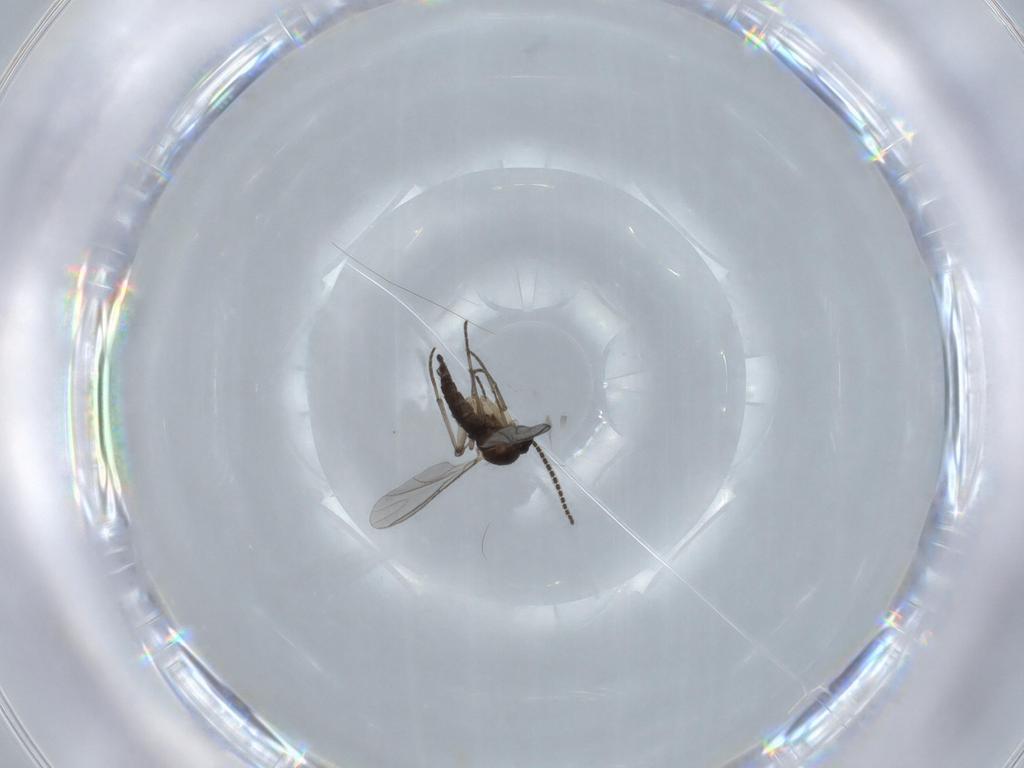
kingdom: Animalia
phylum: Arthropoda
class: Insecta
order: Diptera
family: Sciaridae
